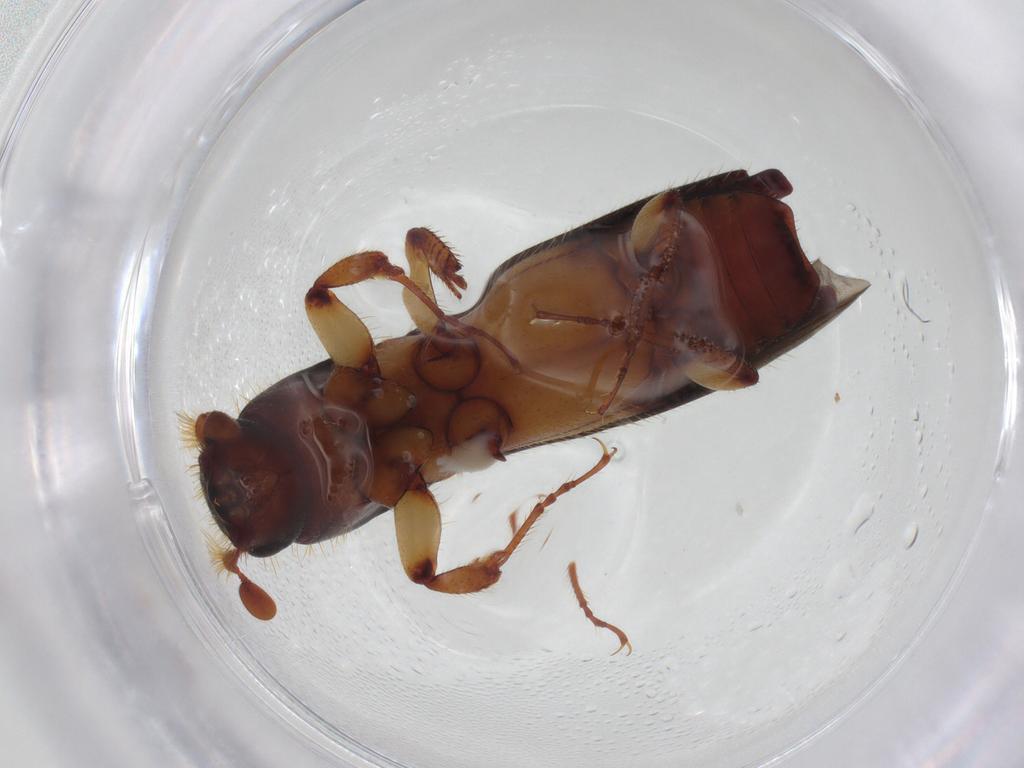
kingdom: Animalia
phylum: Arthropoda
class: Insecta
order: Coleoptera
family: Curculionidae
